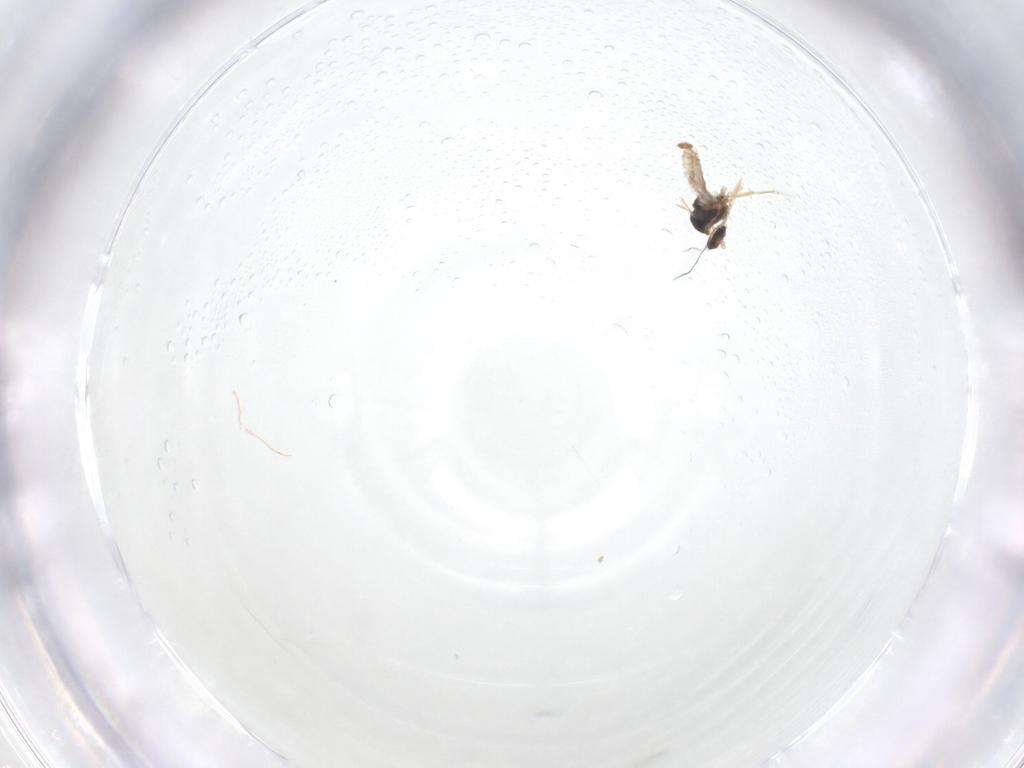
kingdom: Animalia
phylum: Arthropoda
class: Insecta
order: Diptera
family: Cecidomyiidae
